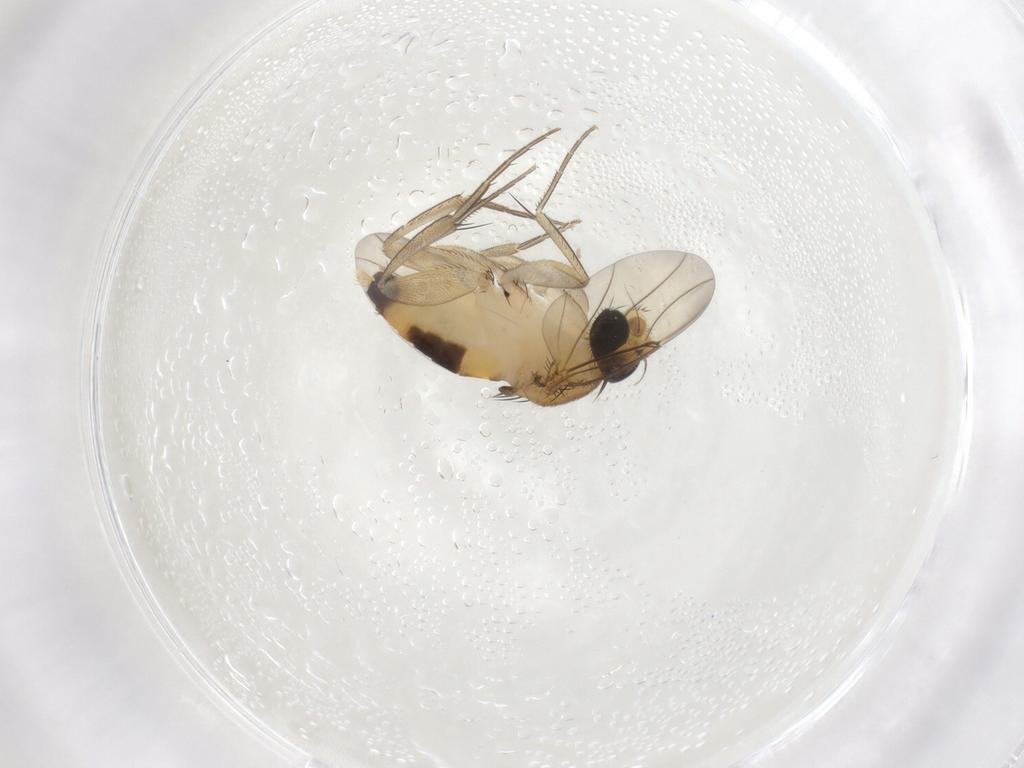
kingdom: Animalia
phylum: Arthropoda
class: Insecta
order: Diptera
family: Phoridae
